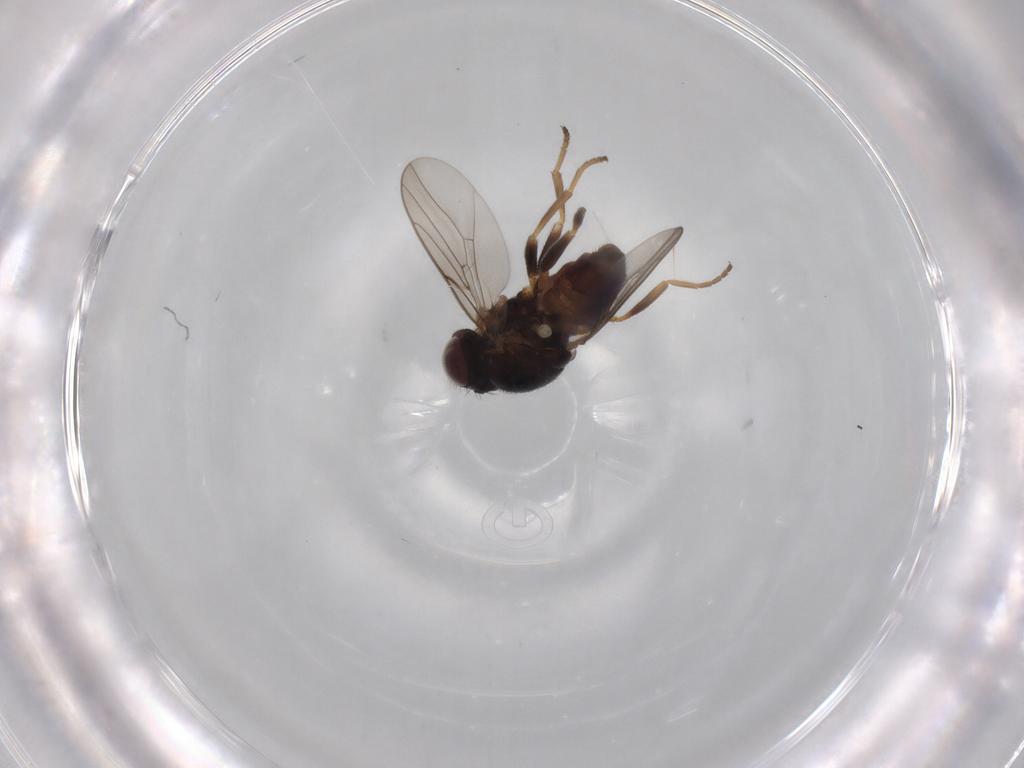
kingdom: Animalia
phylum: Arthropoda
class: Insecta
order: Diptera
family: Chloropidae
